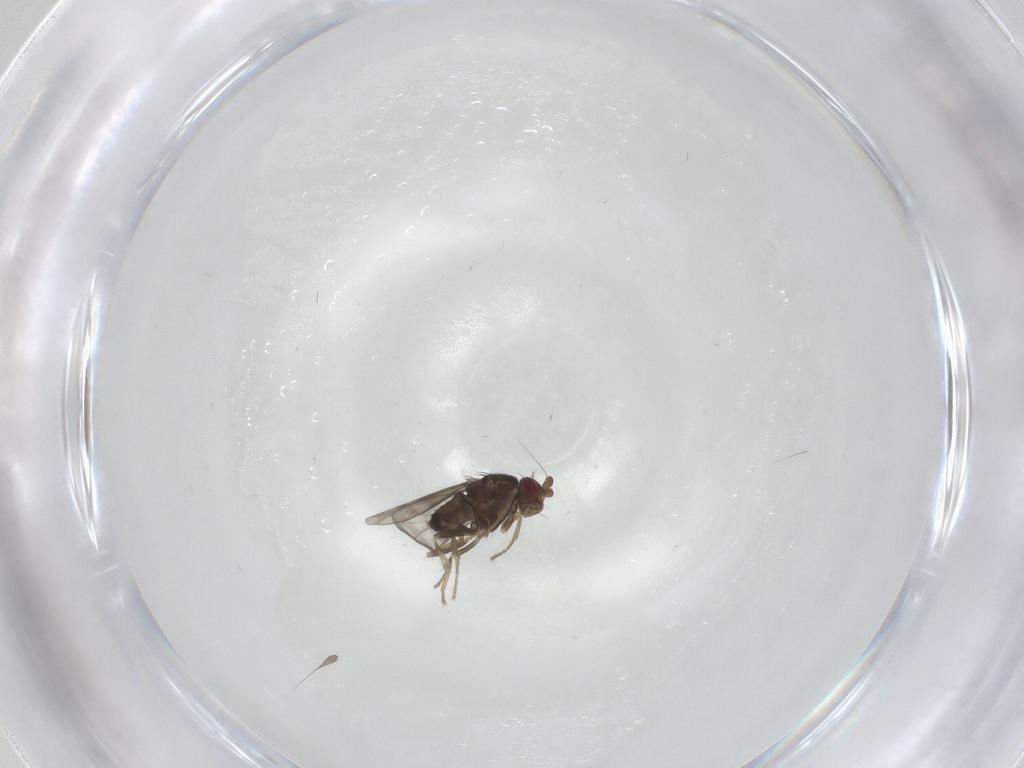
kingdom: Animalia
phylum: Arthropoda
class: Insecta
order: Diptera
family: Sphaeroceridae
